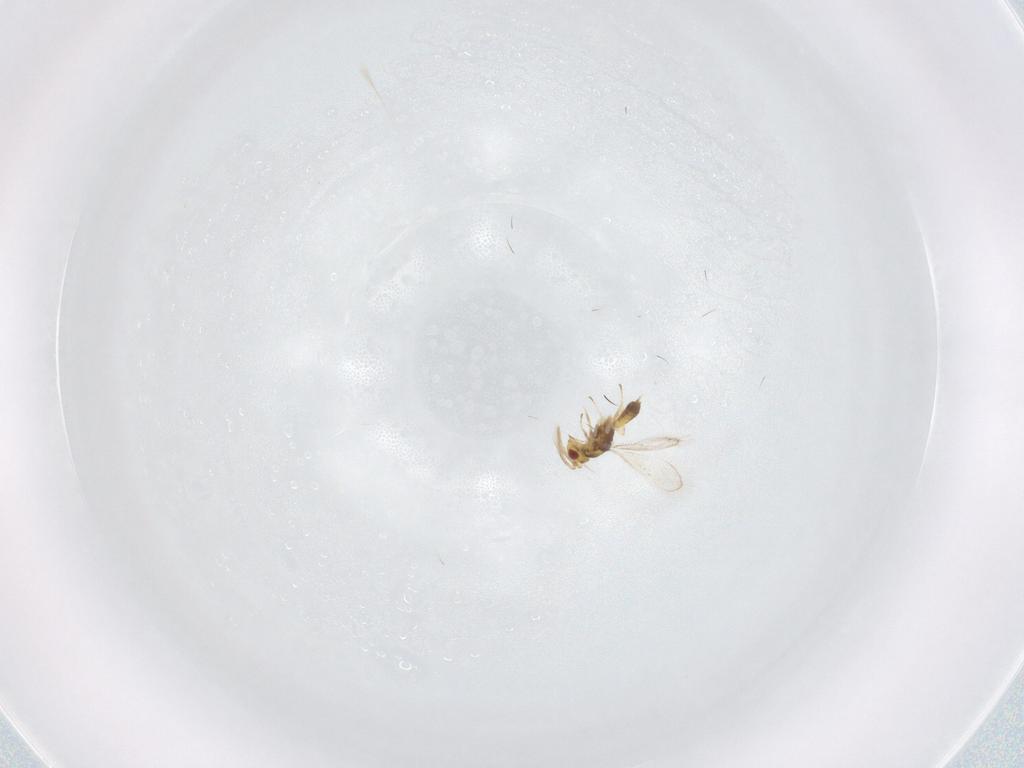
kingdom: Animalia
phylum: Arthropoda
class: Insecta
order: Hymenoptera
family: Eulophidae
